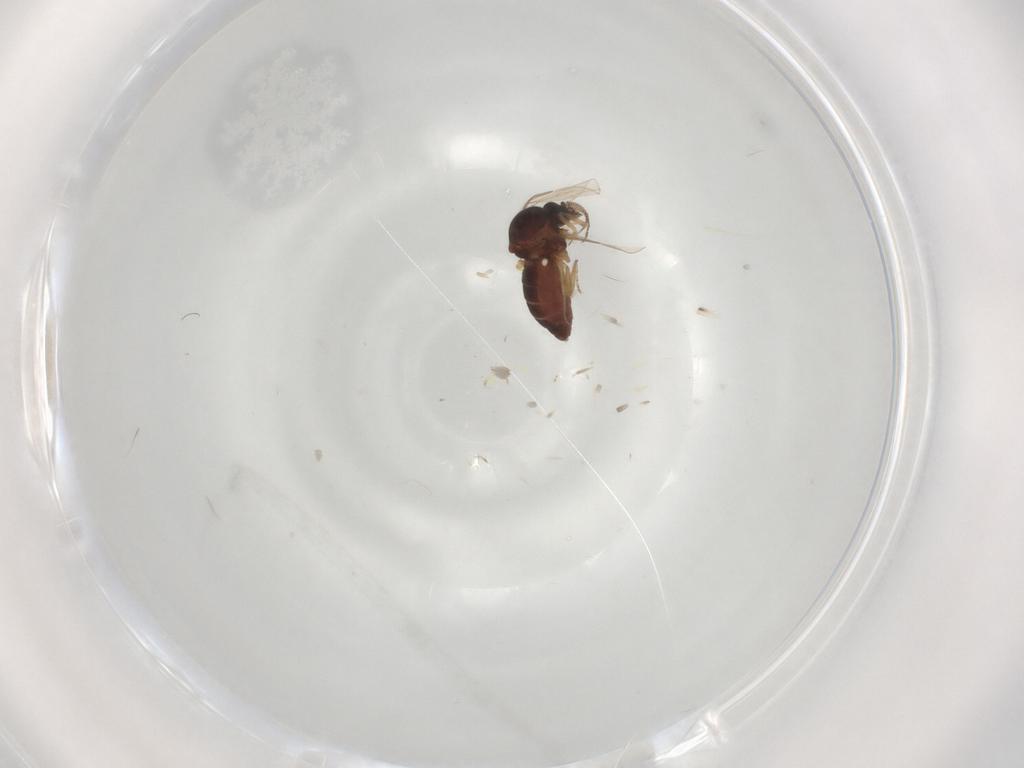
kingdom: Animalia
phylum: Arthropoda
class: Insecta
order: Diptera
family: Ceratopogonidae
